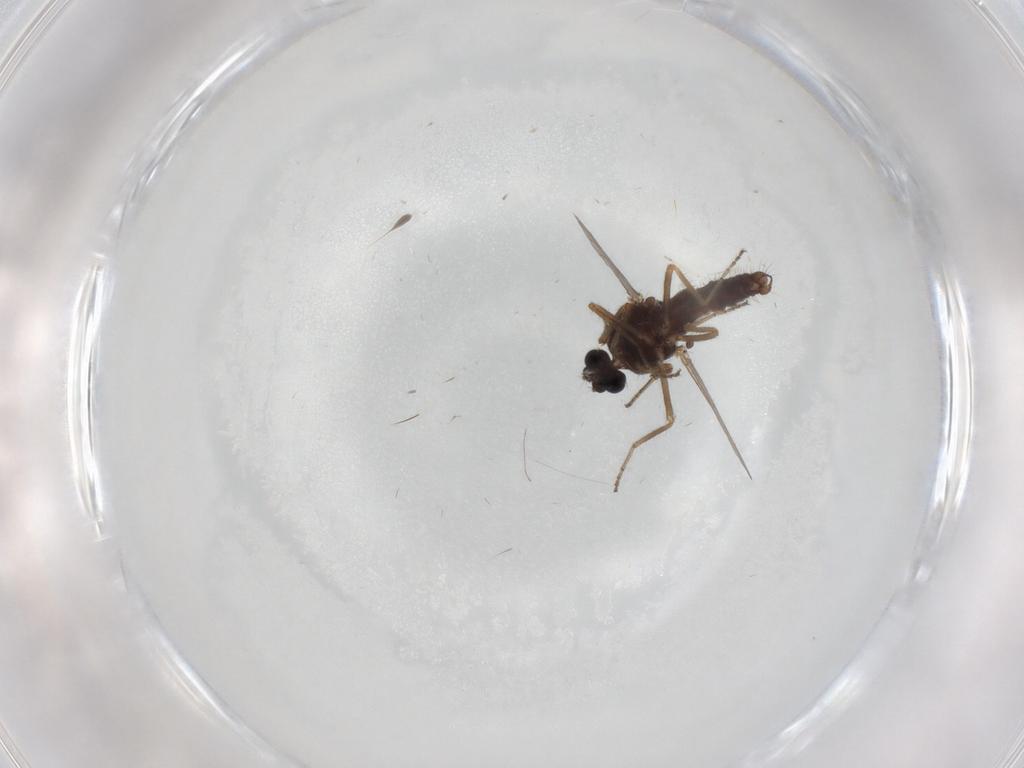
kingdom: Animalia
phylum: Arthropoda
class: Insecta
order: Diptera
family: Ceratopogonidae
